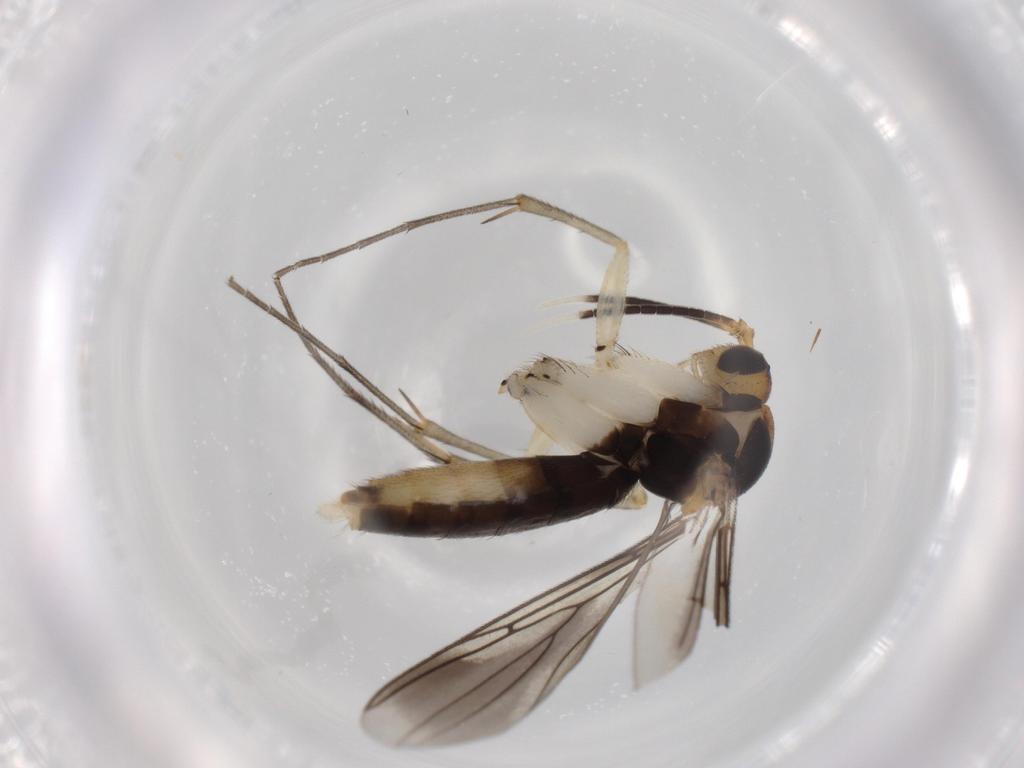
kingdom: Animalia
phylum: Arthropoda
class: Insecta
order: Diptera
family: Mycetophilidae
